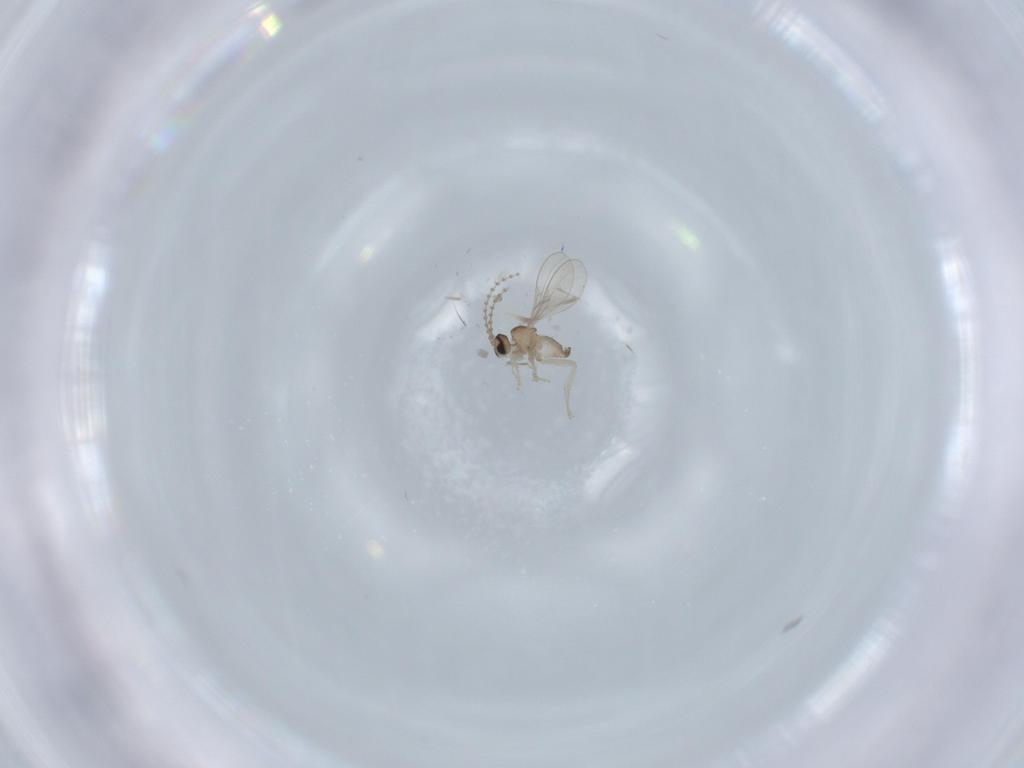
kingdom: Animalia
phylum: Arthropoda
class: Insecta
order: Diptera
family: Cecidomyiidae
